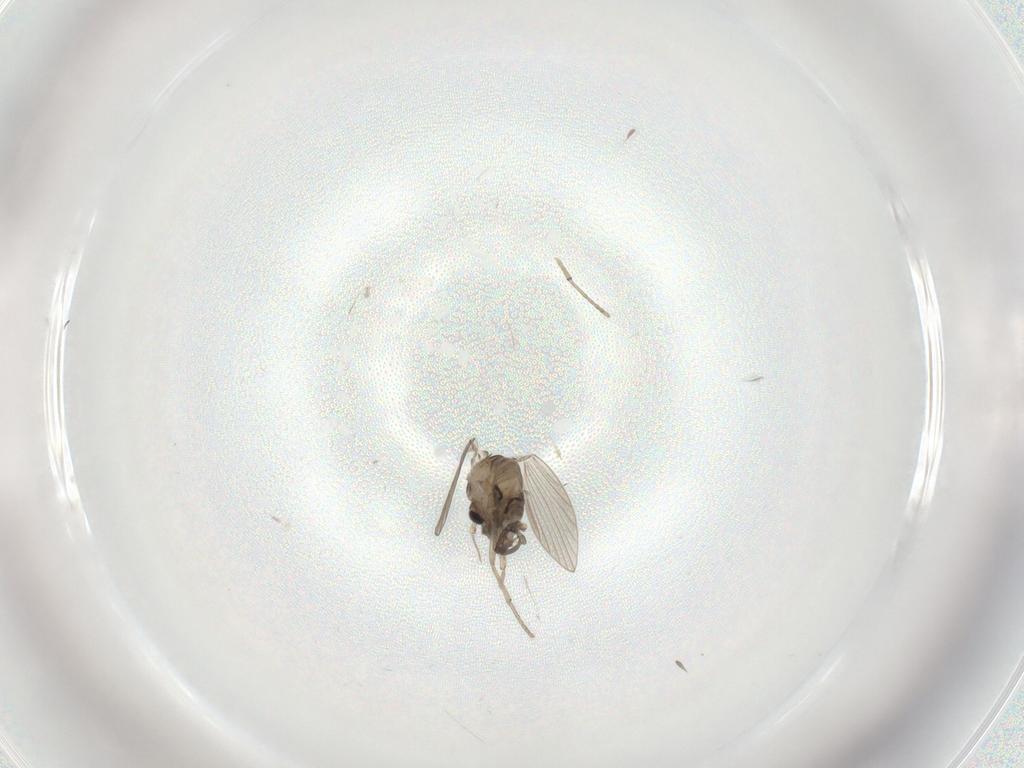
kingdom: Animalia
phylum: Arthropoda
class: Insecta
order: Diptera
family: Psychodidae
